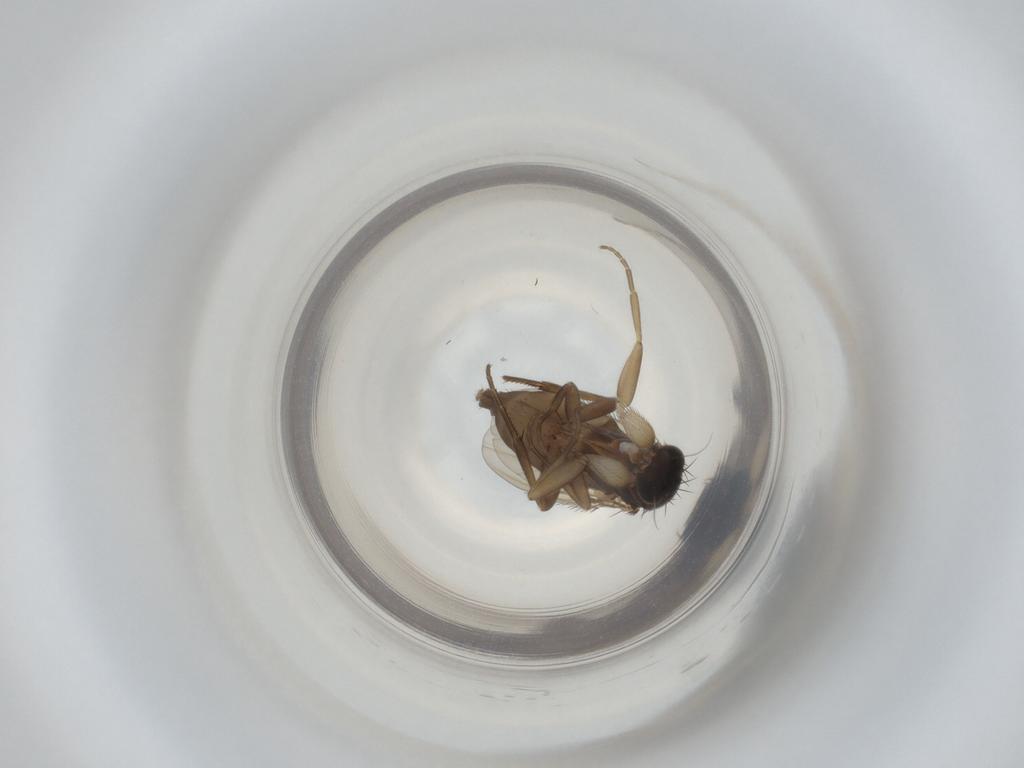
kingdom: Animalia
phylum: Arthropoda
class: Insecta
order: Diptera
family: Phoridae
